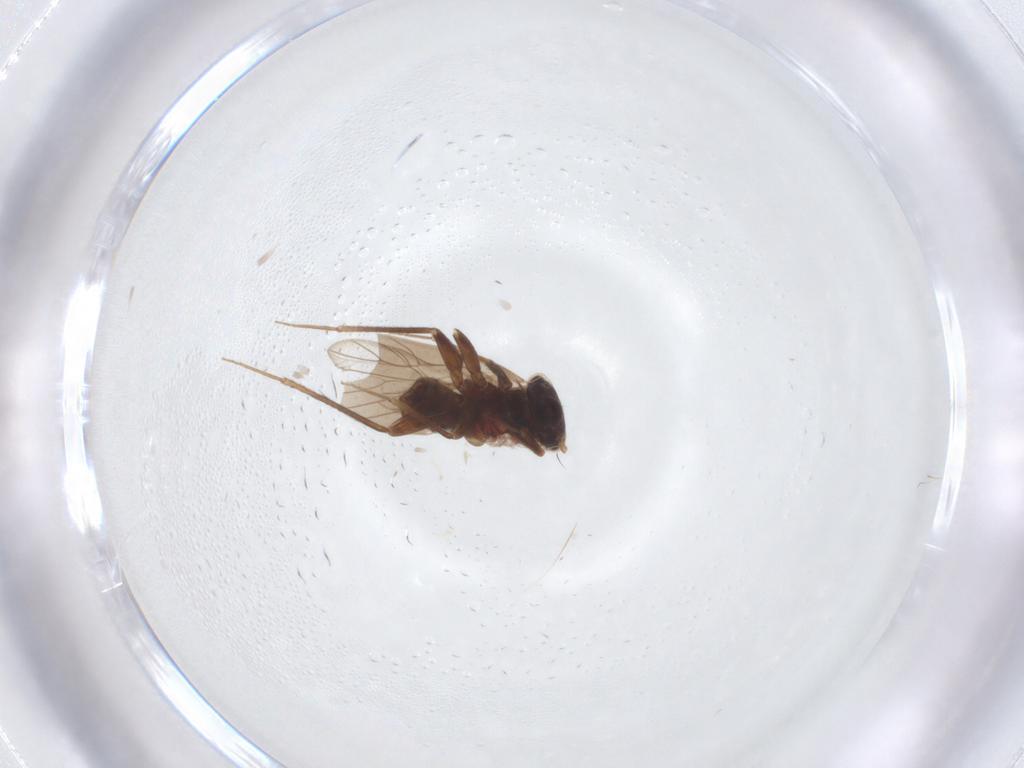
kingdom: Animalia
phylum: Arthropoda
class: Insecta
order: Psocodea
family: Lepidopsocidae
